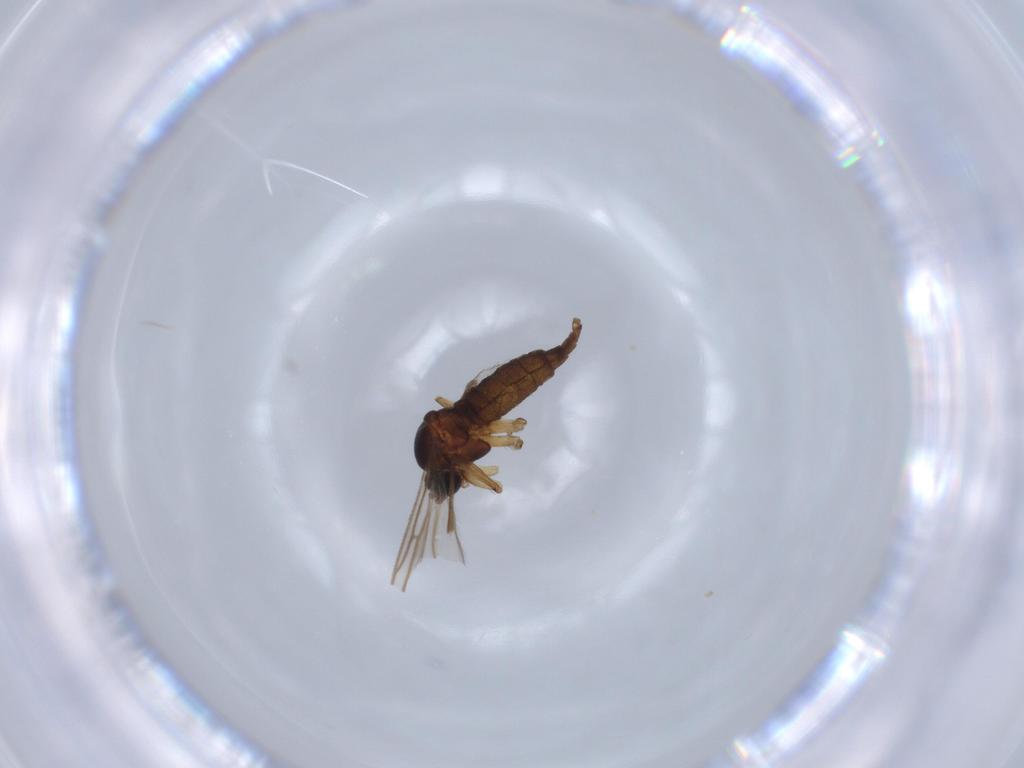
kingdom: Animalia
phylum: Arthropoda
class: Insecta
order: Diptera
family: Sciaridae
